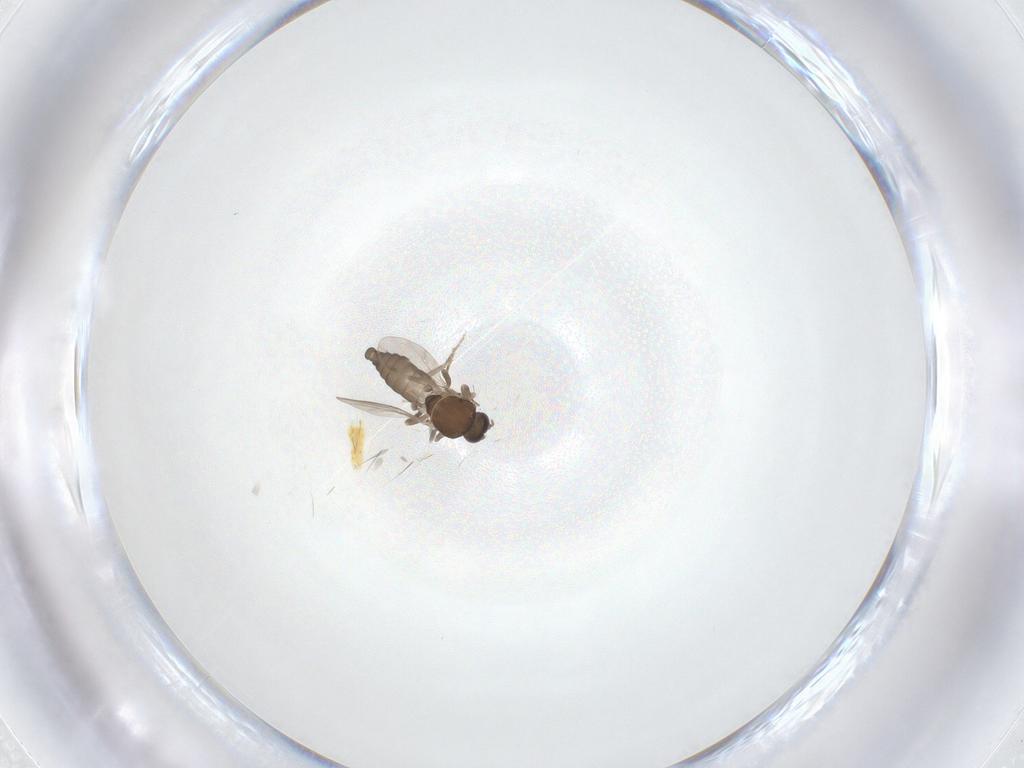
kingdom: Animalia
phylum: Arthropoda
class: Insecta
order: Diptera
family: Ceratopogonidae
